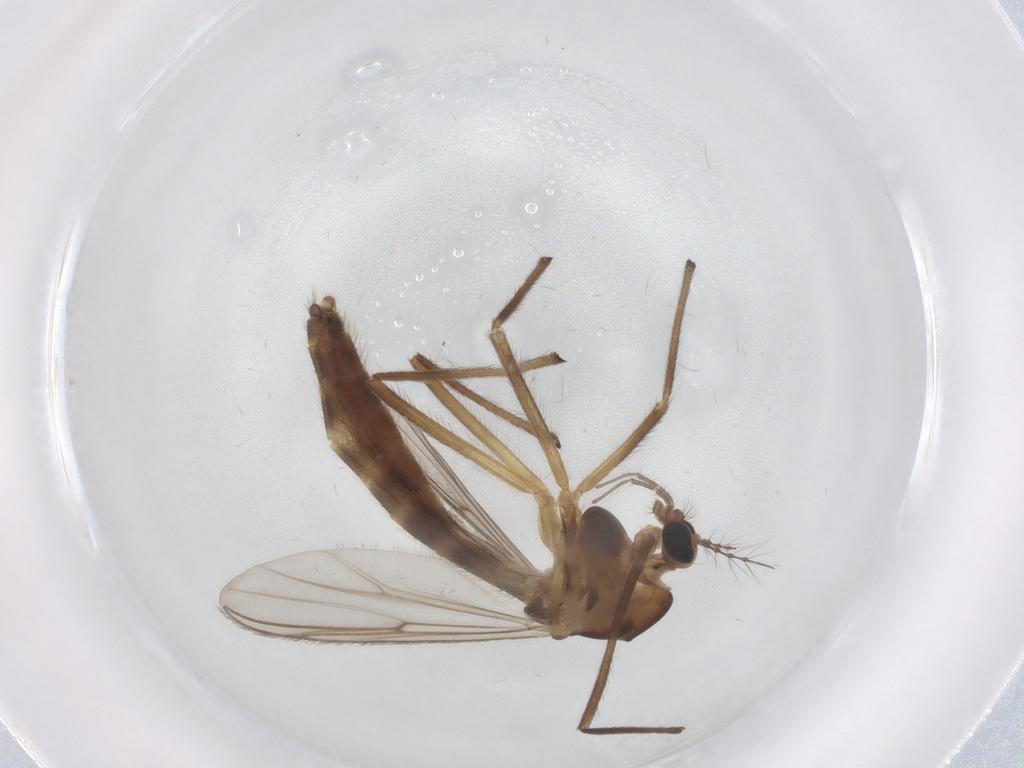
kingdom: Animalia
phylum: Arthropoda
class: Insecta
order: Diptera
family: Chironomidae
